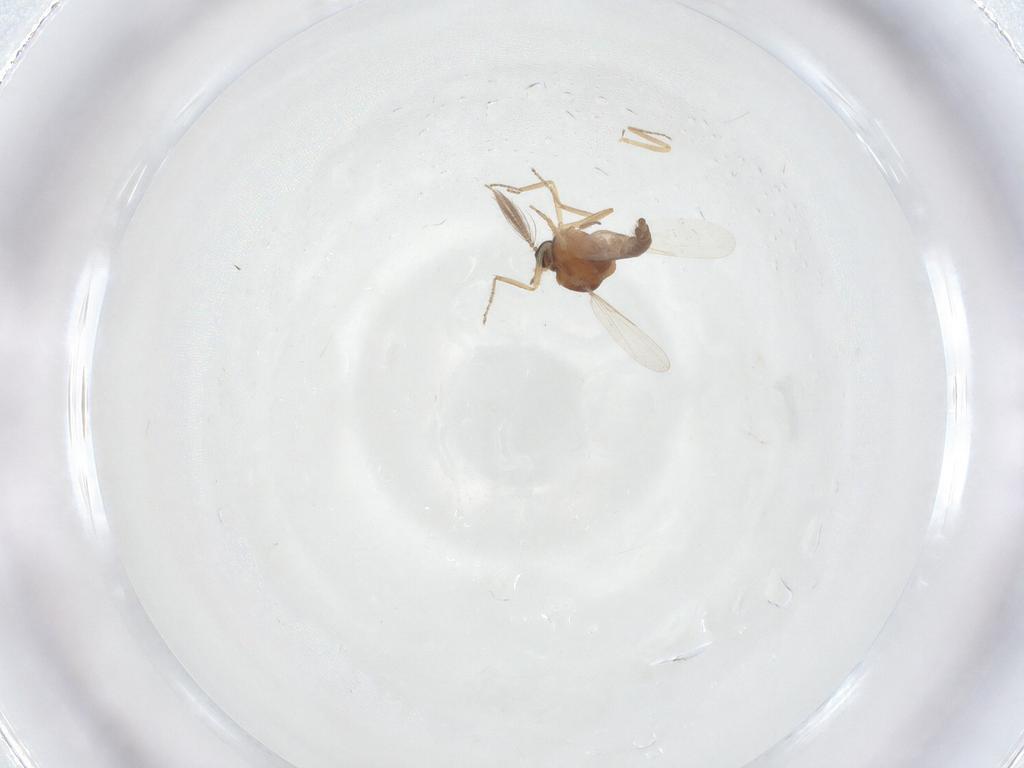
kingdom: Animalia
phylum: Arthropoda
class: Insecta
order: Diptera
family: Ceratopogonidae
